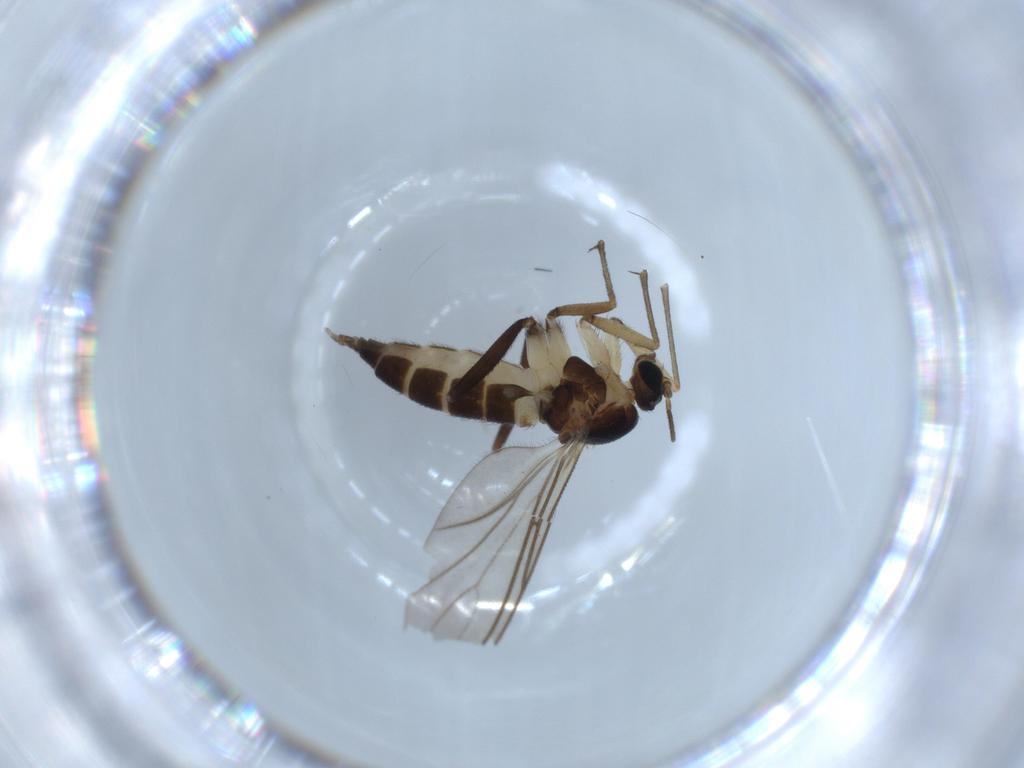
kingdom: Animalia
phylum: Arthropoda
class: Insecta
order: Diptera
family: Sciaridae
